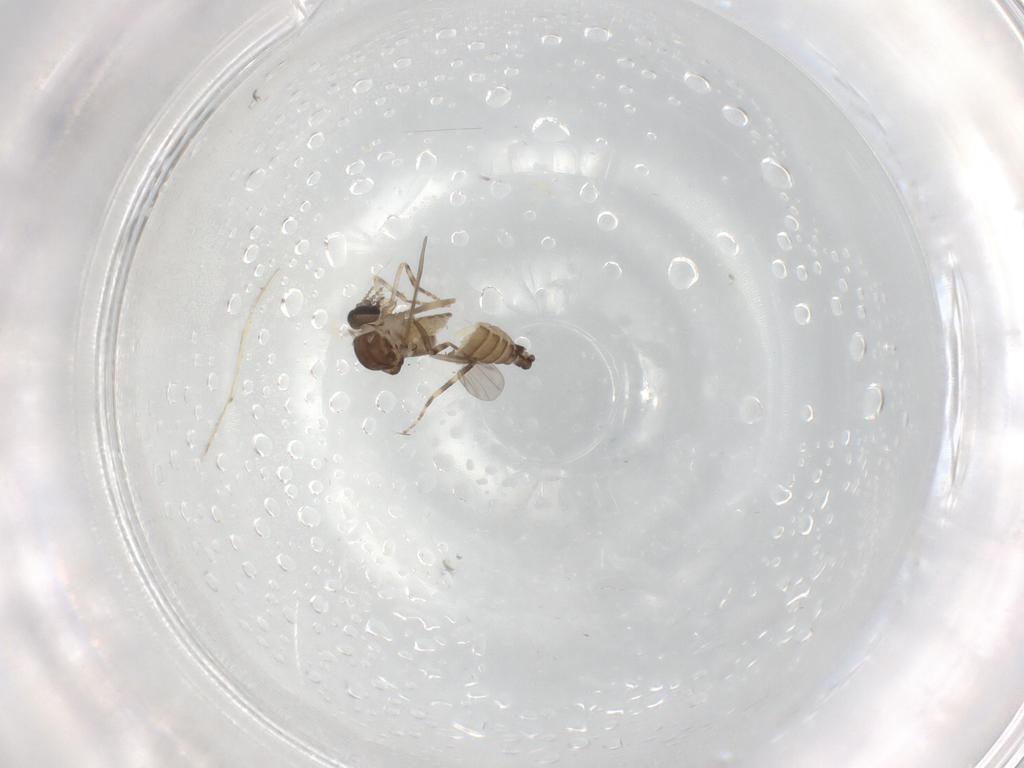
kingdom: Animalia
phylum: Arthropoda
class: Insecta
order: Diptera
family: Ceratopogonidae
